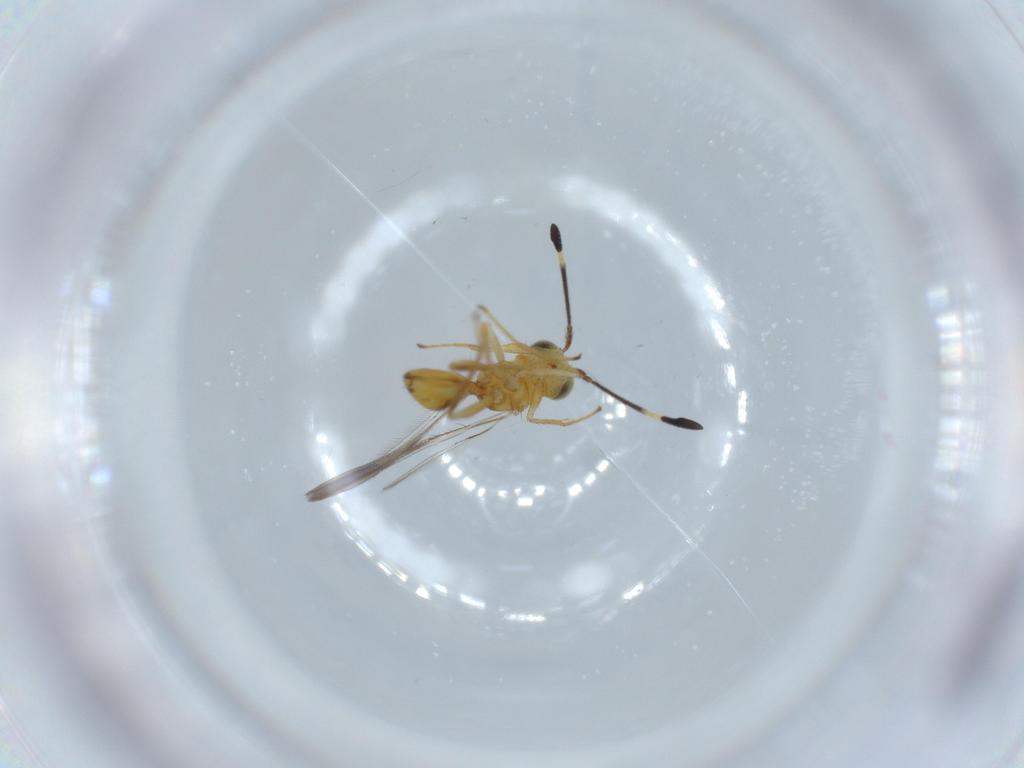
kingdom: Animalia
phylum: Arthropoda
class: Insecta
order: Hymenoptera
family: Mymaridae
